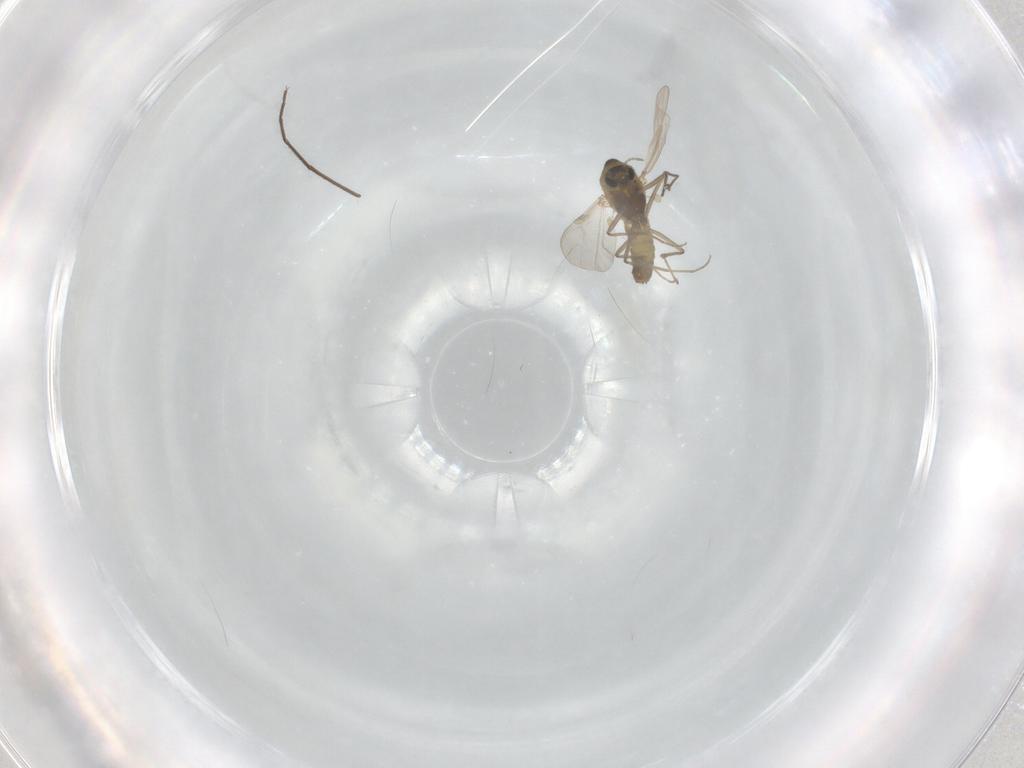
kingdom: Animalia
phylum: Arthropoda
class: Insecta
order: Diptera
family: Chironomidae
